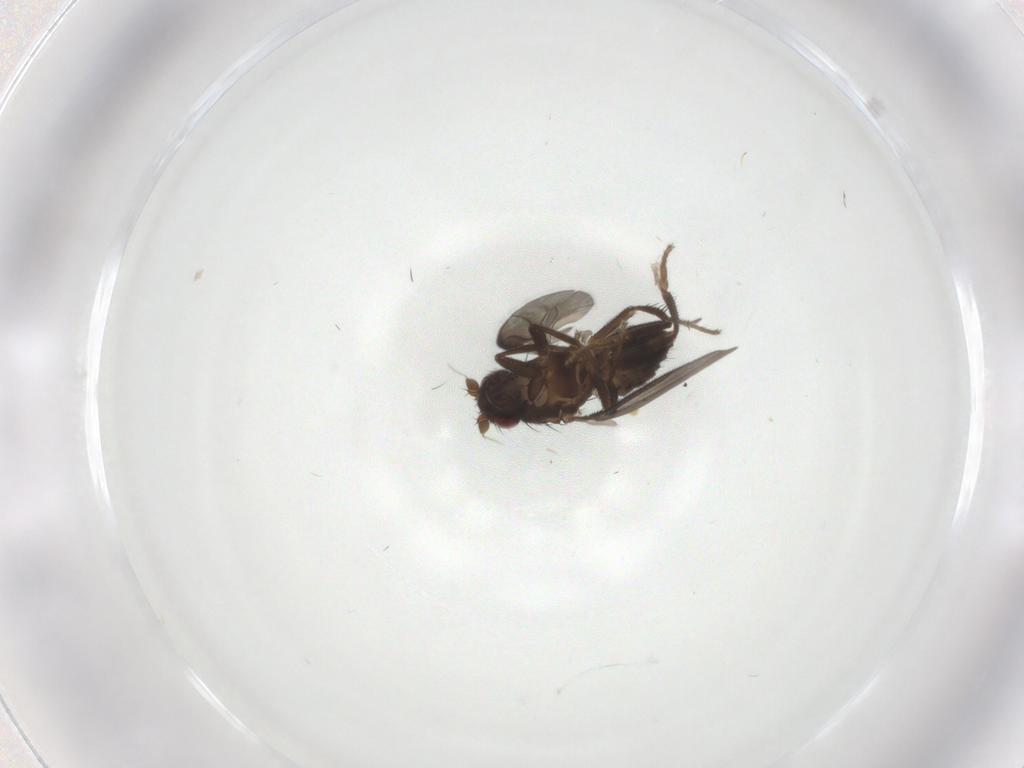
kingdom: Animalia
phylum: Arthropoda
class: Insecta
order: Diptera
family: Sphaeroceridae
